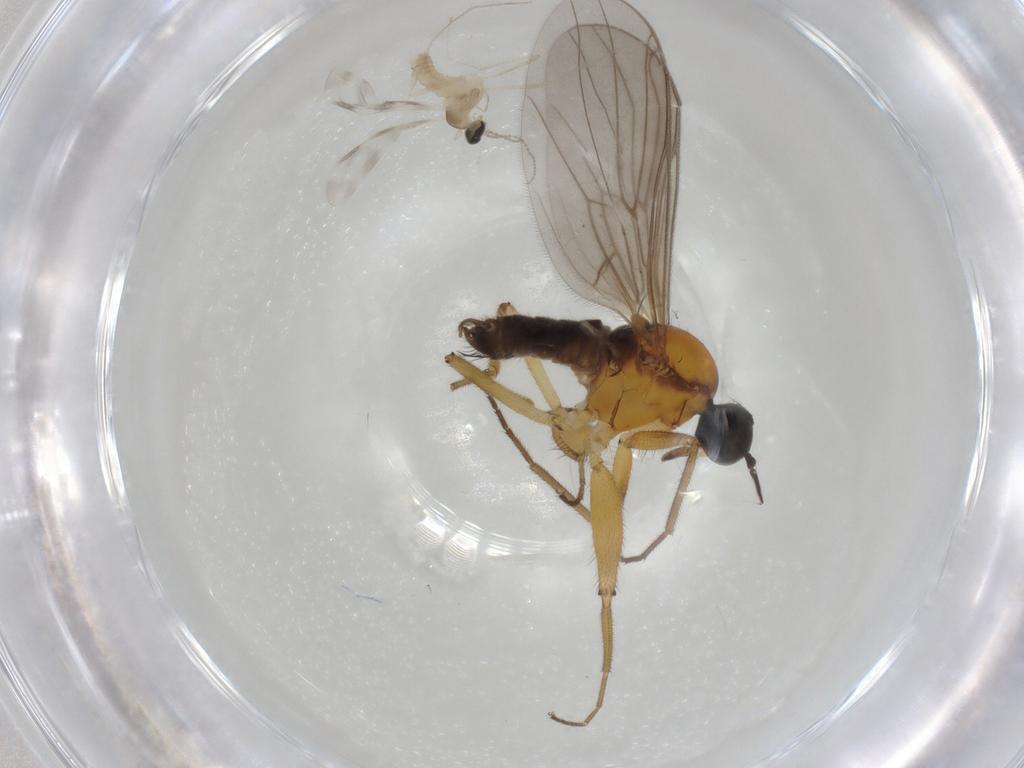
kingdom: Animalia
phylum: Arthropoda
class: Insecta
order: Diptera
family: Hybotidae
